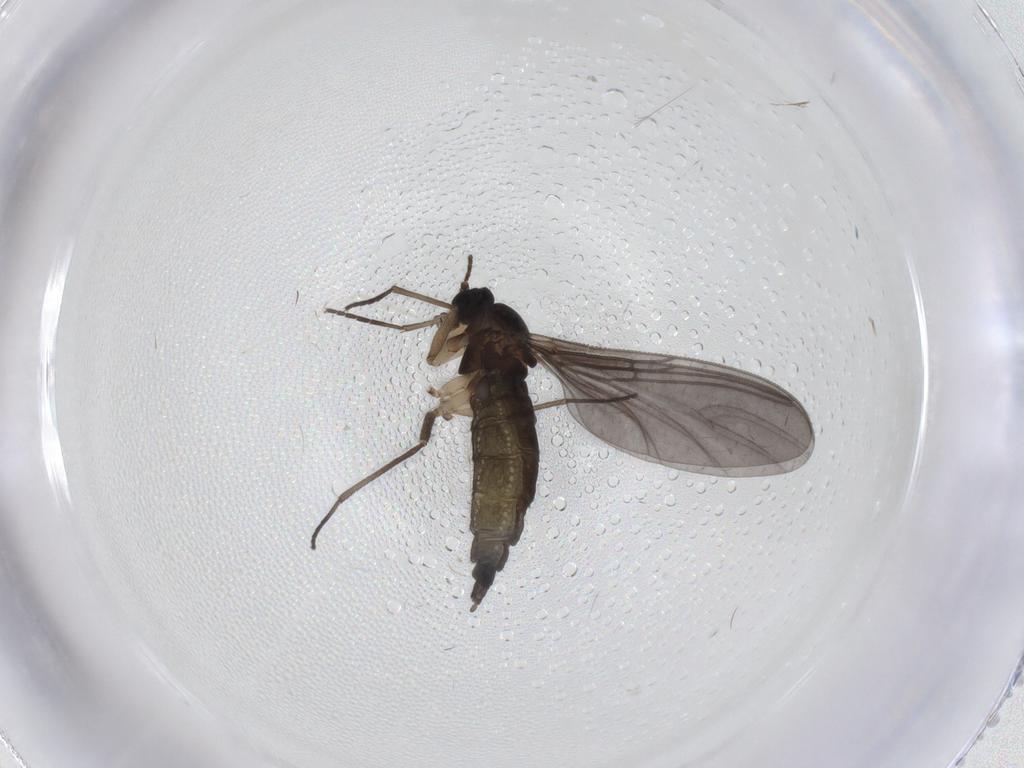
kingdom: Animalia
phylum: Arthropoda
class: Insecta
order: Diptera
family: Sciaridae
